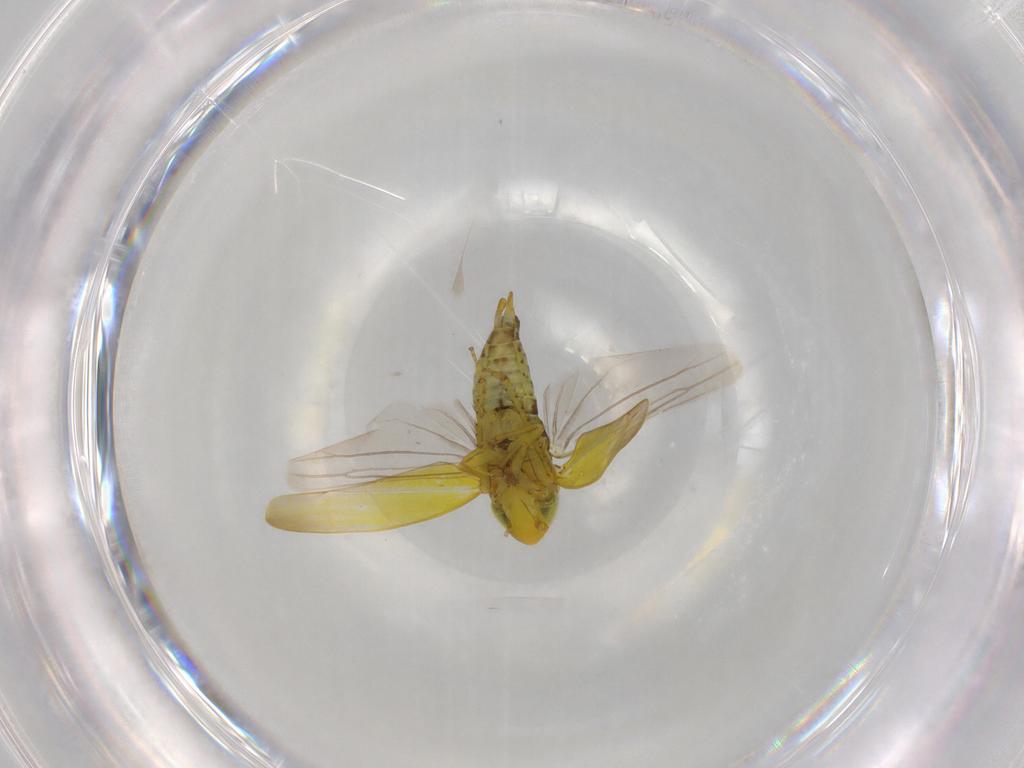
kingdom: Animalia
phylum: Arthropoda
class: Insecta
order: Hemiptera
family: Cicadellidae
